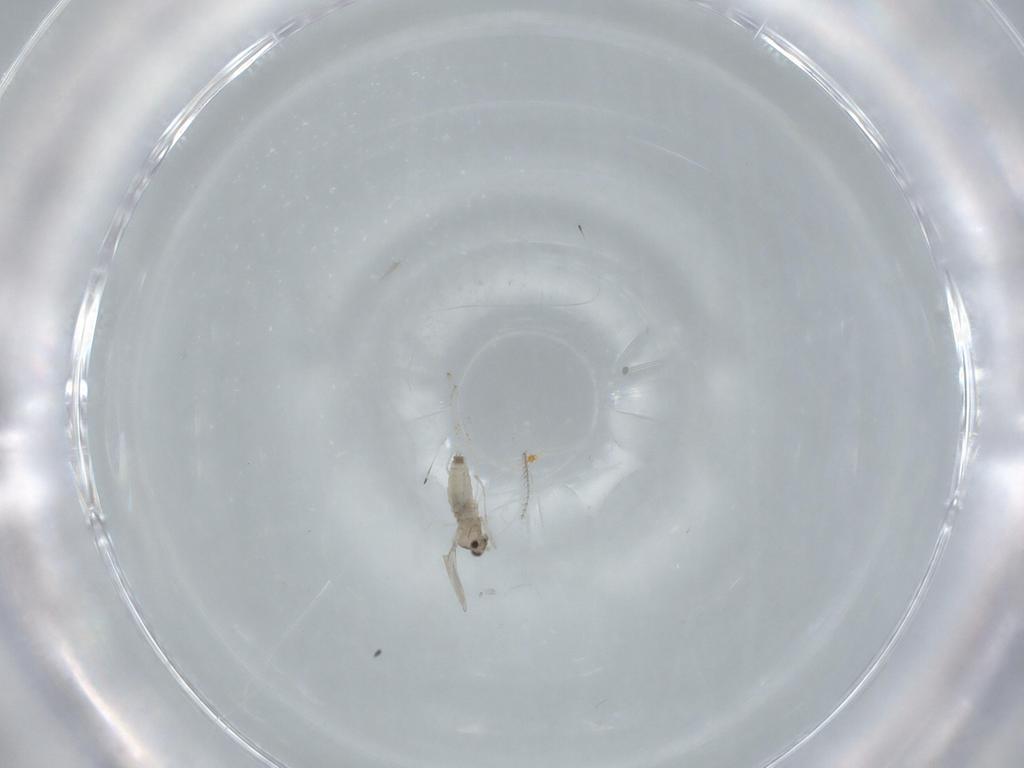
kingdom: Animalia
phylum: Arthropoda
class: Insecta
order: Diptera
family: Cecidomyiidae
